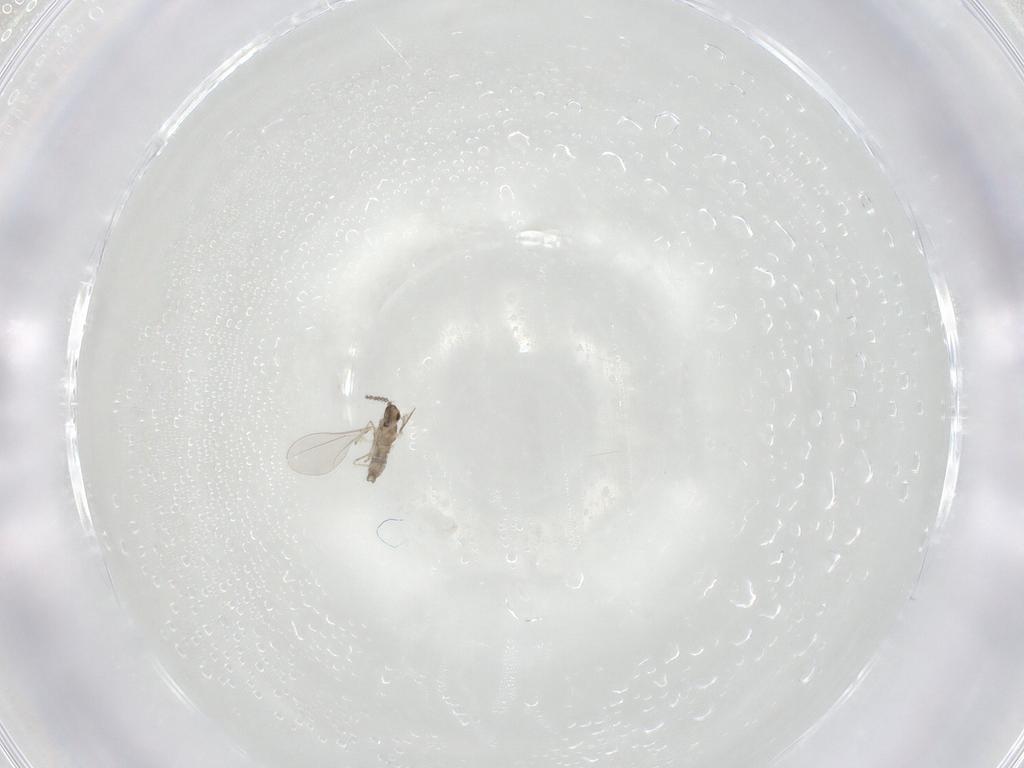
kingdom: Animalia
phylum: Arthropoda
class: Insecta
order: Diptera
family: Cecidomyiidae
